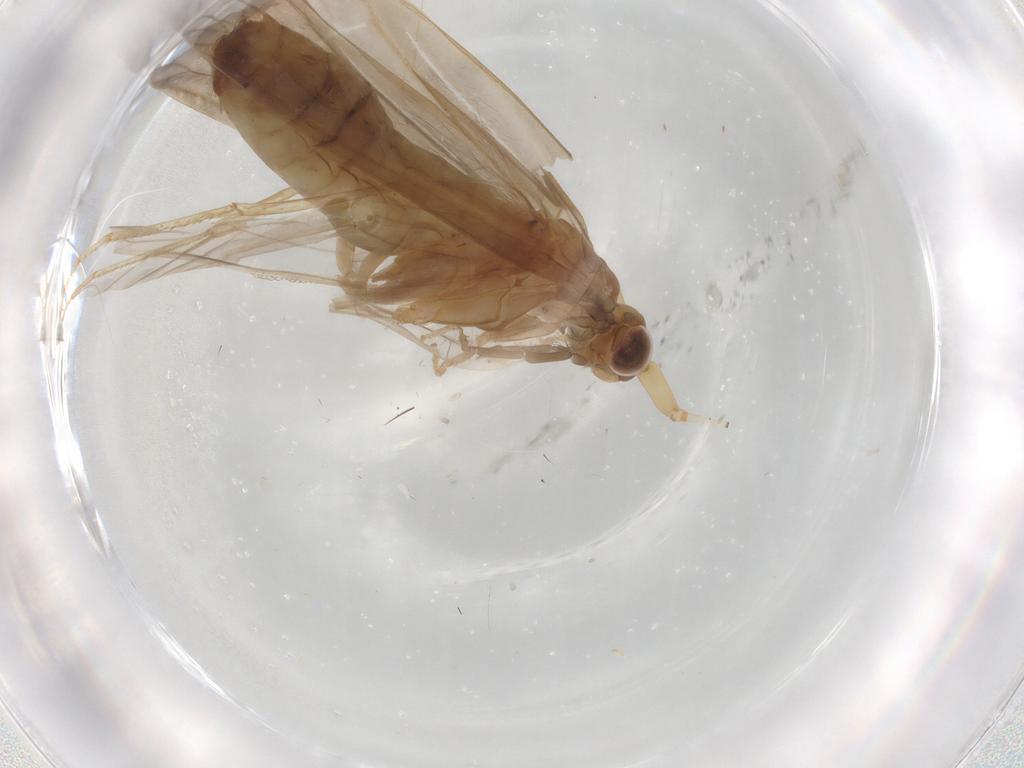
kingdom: Animalia
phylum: Arthropoda
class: Insecta
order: Trichoptera
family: Leptoceridae
